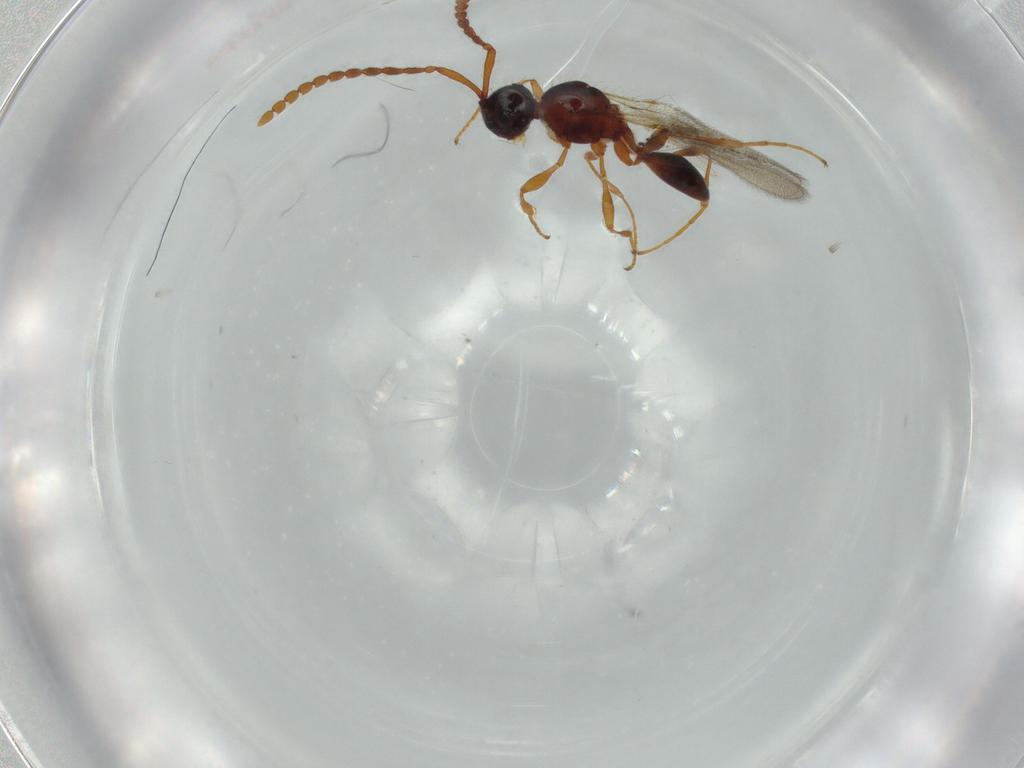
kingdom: Animalia
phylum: Arthropoda
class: Insecta
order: Hymenoptera
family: Diapriidae
